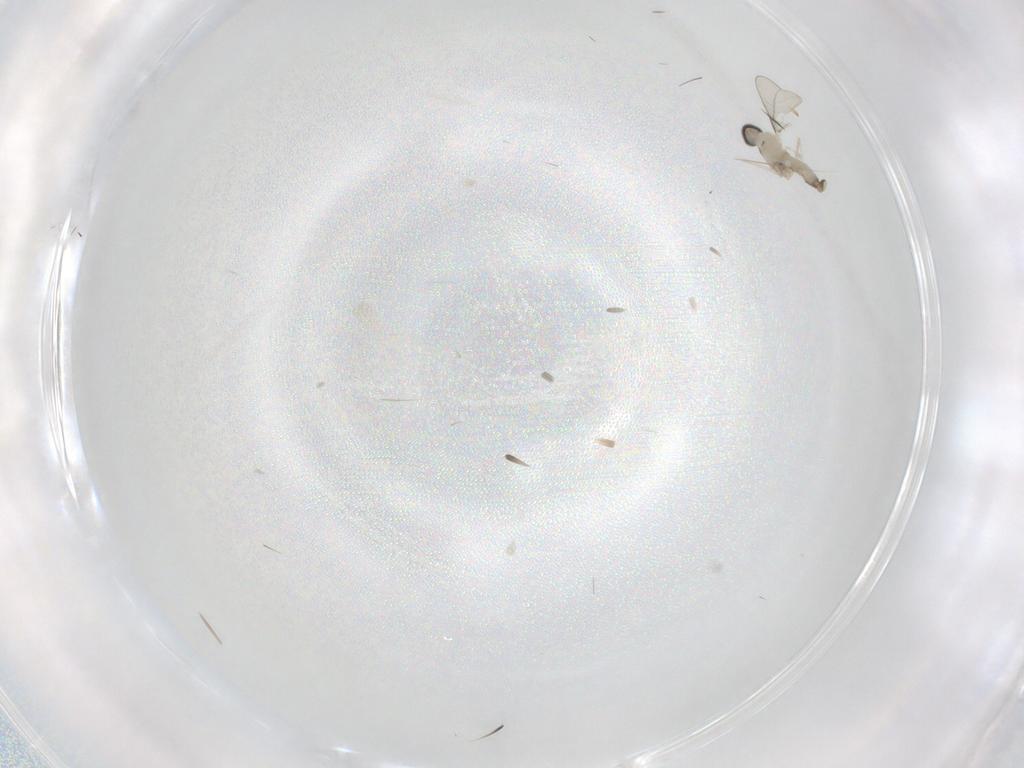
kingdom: Animalia
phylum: Arthropoda
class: Insecta
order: Diptera
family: Cecidomyiidae
